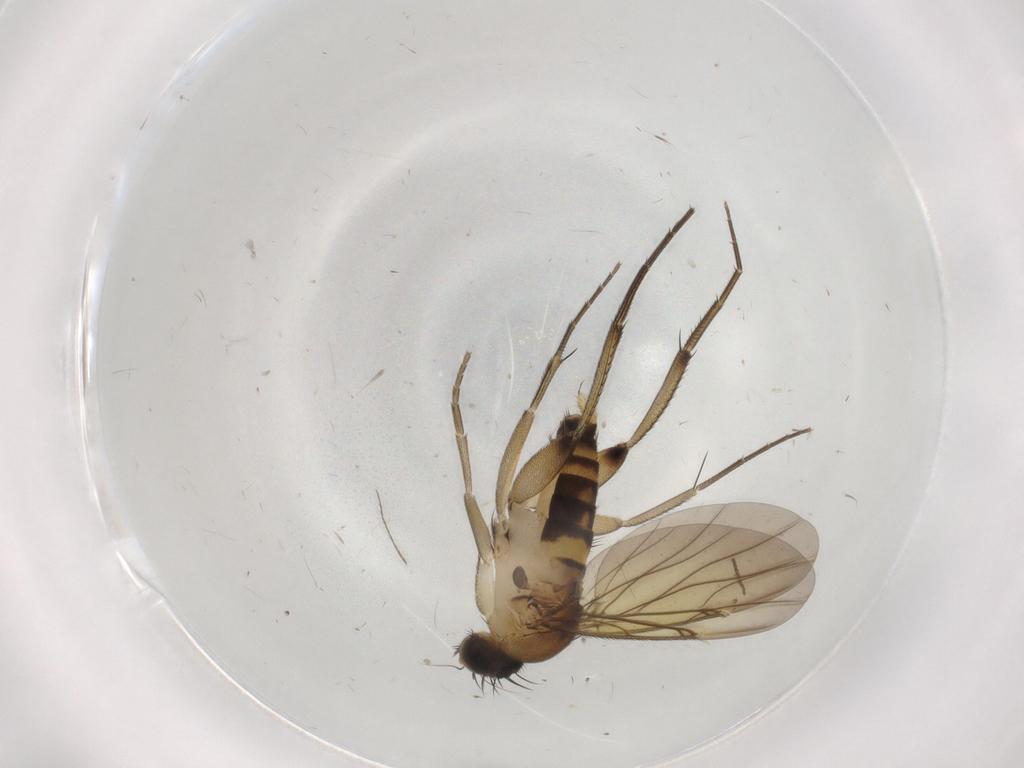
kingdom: Animalia
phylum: Arthropoda
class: Insecta
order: Diptera
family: Phoridae
